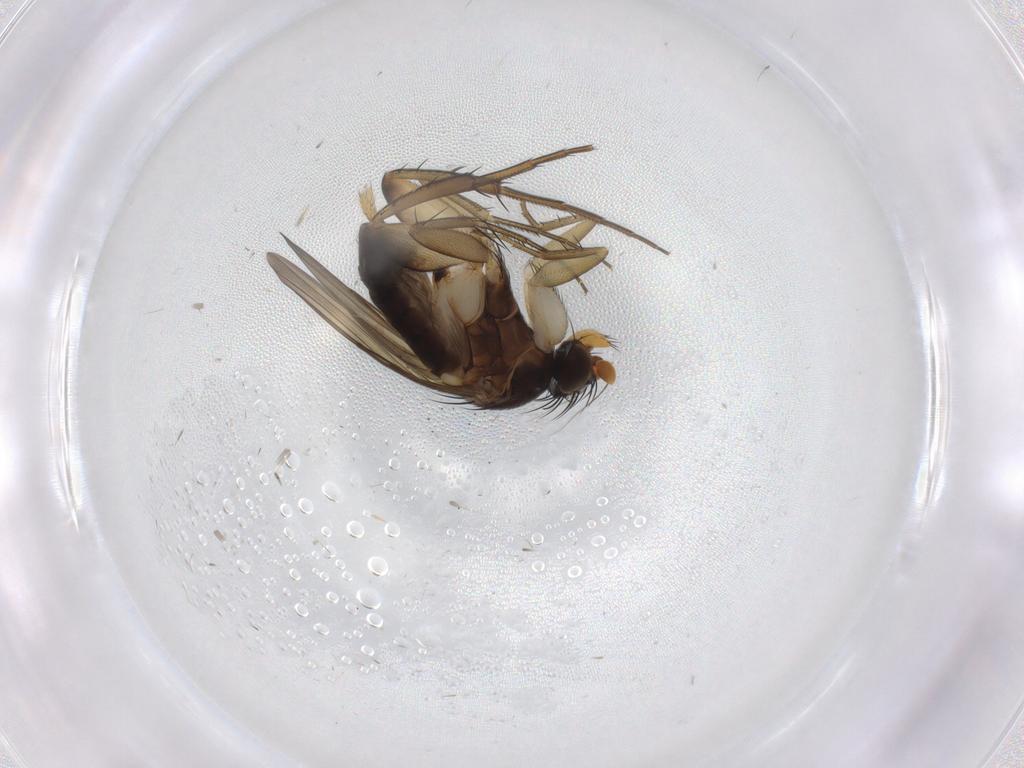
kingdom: Animalia
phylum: Arthropoda
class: Insecta
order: Diptera
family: Phoridae
